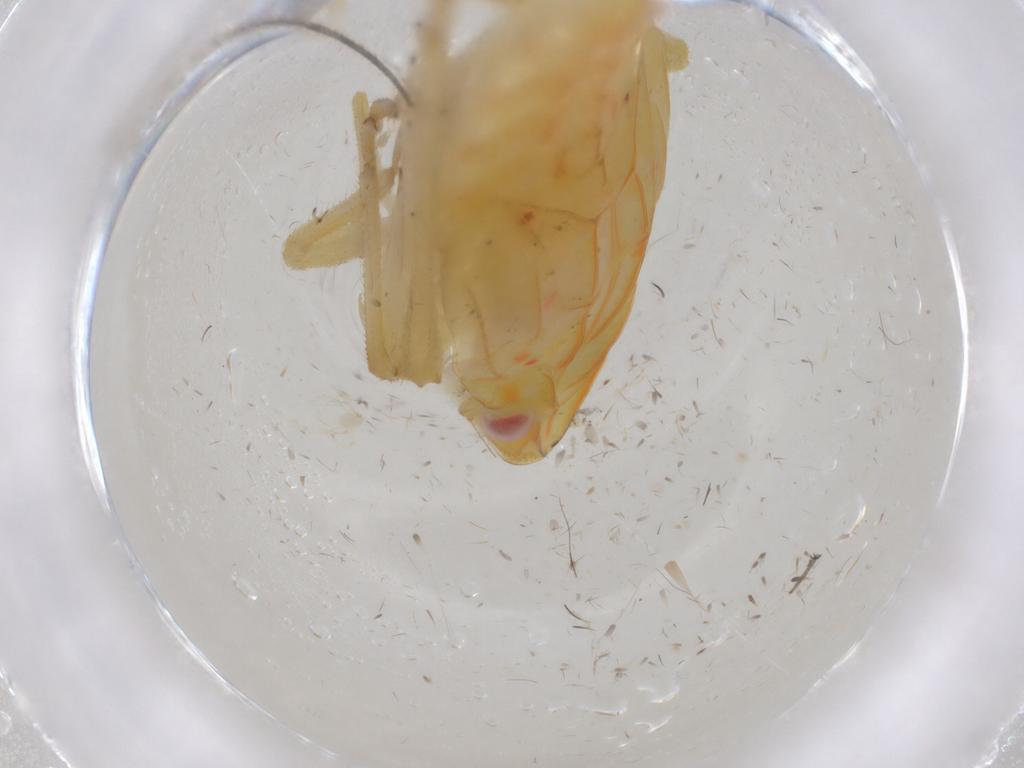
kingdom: Animalia
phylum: Arthropoda
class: Insecta
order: Hemiptera
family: Tropiduchidae
